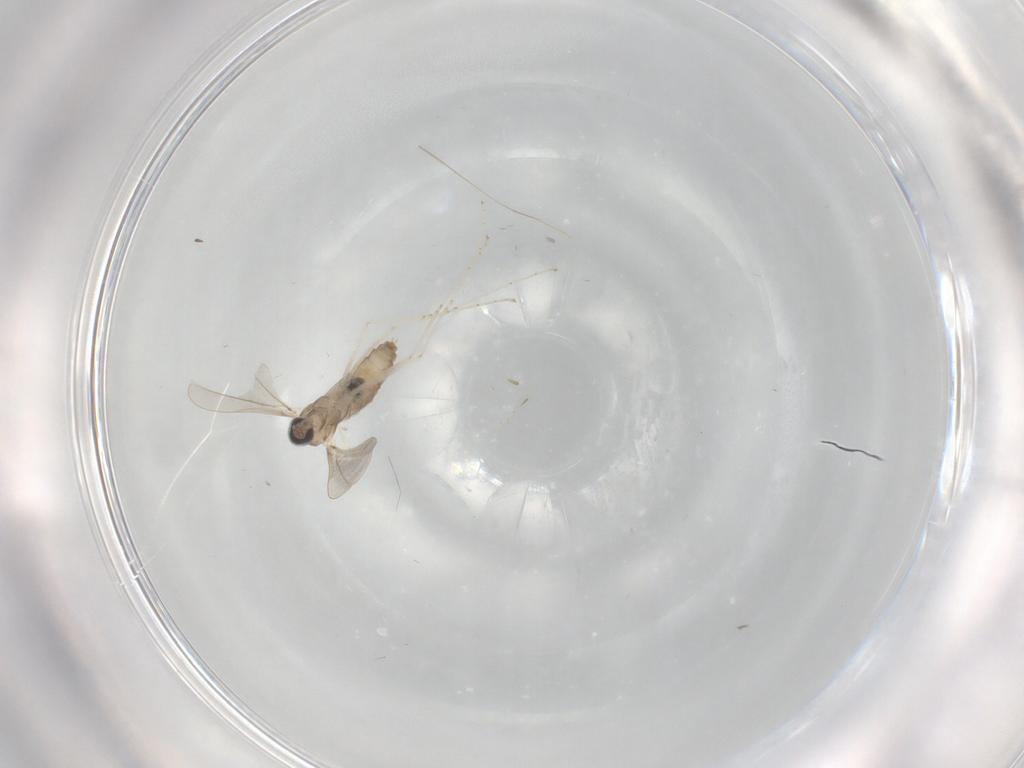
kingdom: Animalia
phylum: Arthropoda
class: Insecta
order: Diptera
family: Cecidomyiidae
